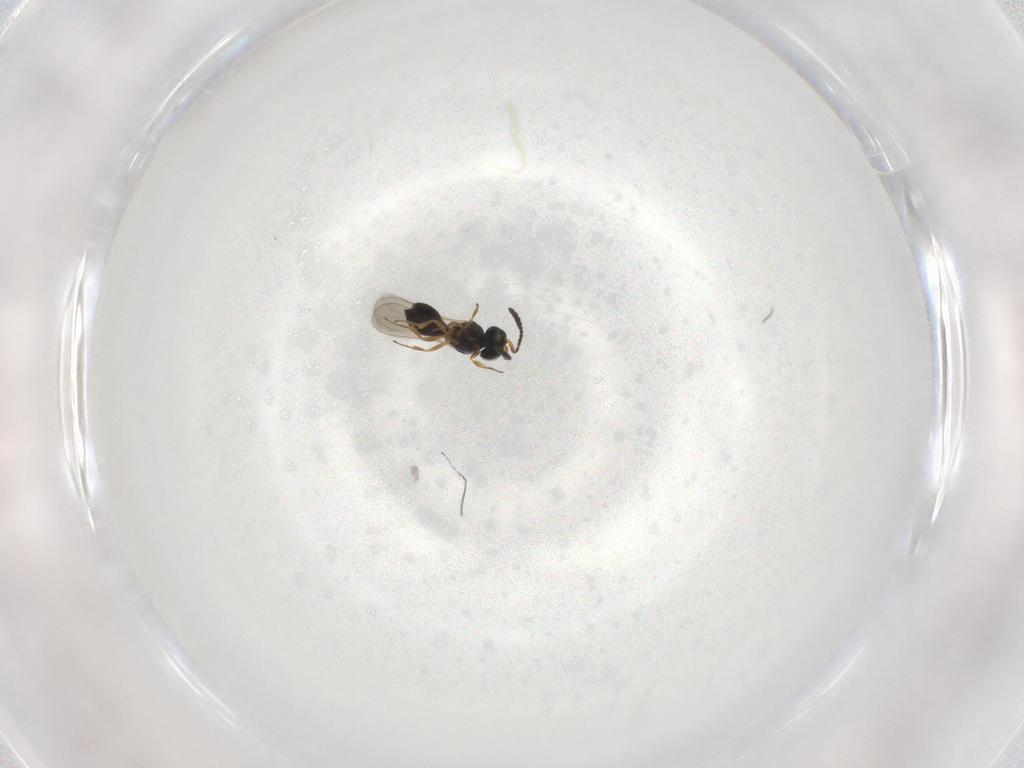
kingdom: Animalia
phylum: Arthropoda
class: Insecta
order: Hymenoptera
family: Scelionidae
